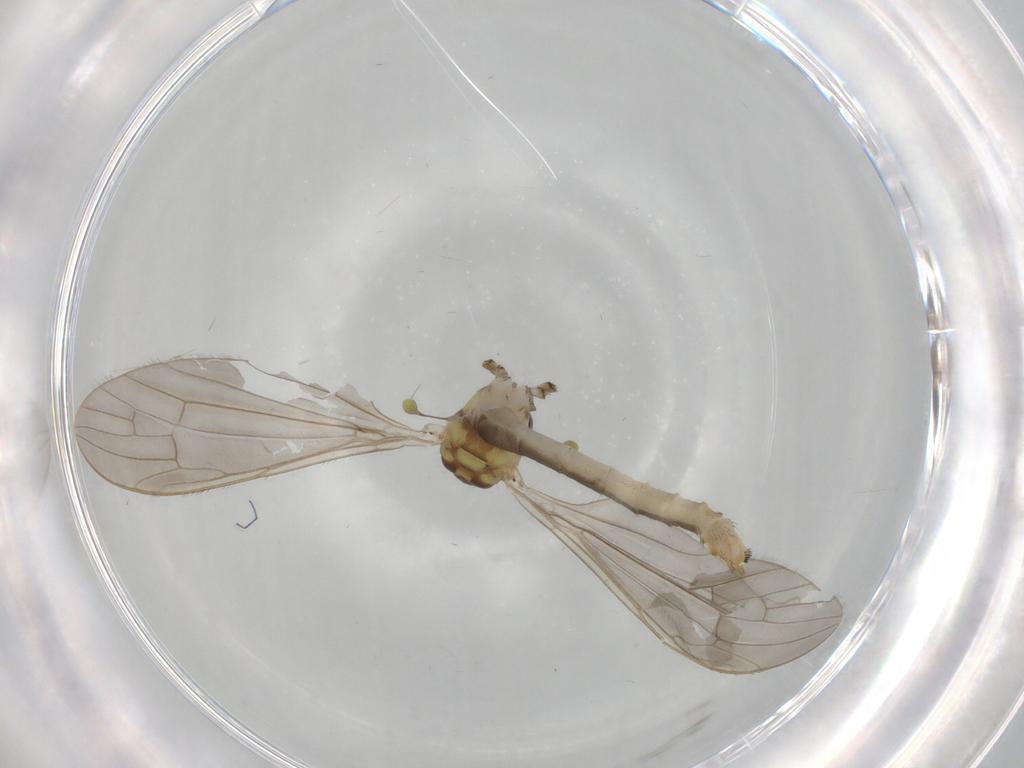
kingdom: Animalia
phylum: Arthropoda
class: Insecta
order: Diptera
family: Limoniidae
